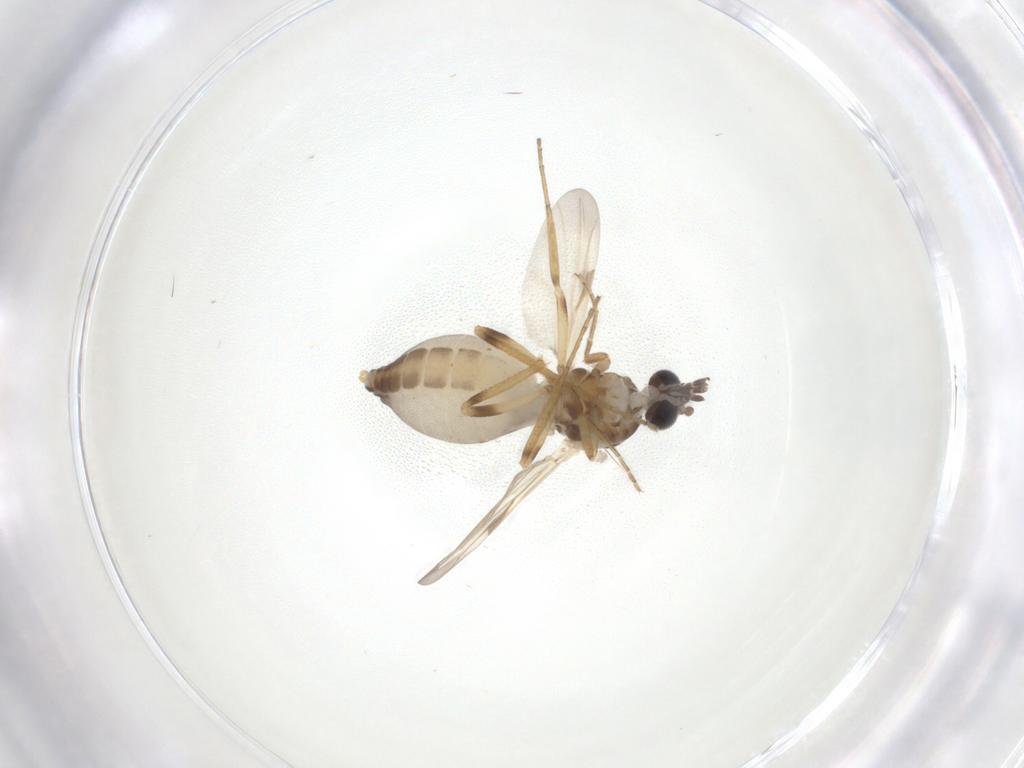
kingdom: Animalia
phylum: Arthropoda
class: Insecta
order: Diptera
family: Ceratopogonidae
